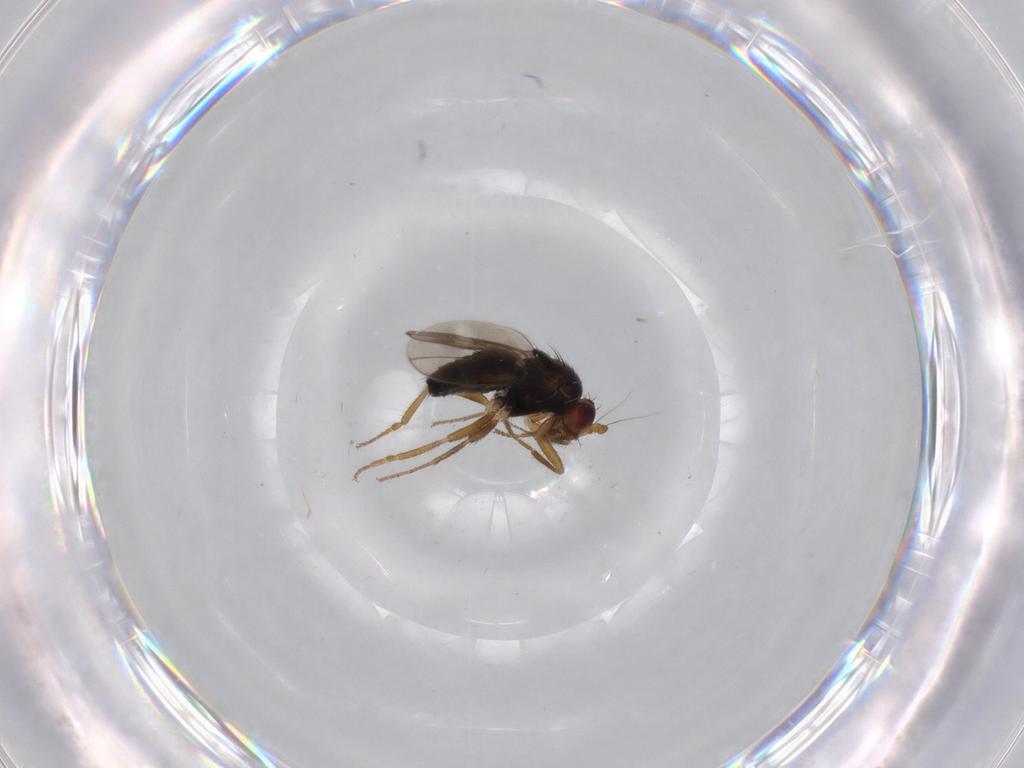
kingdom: Animalia
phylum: Arthropoda
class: Insecta
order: Diptera
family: Sphaeroceridae
